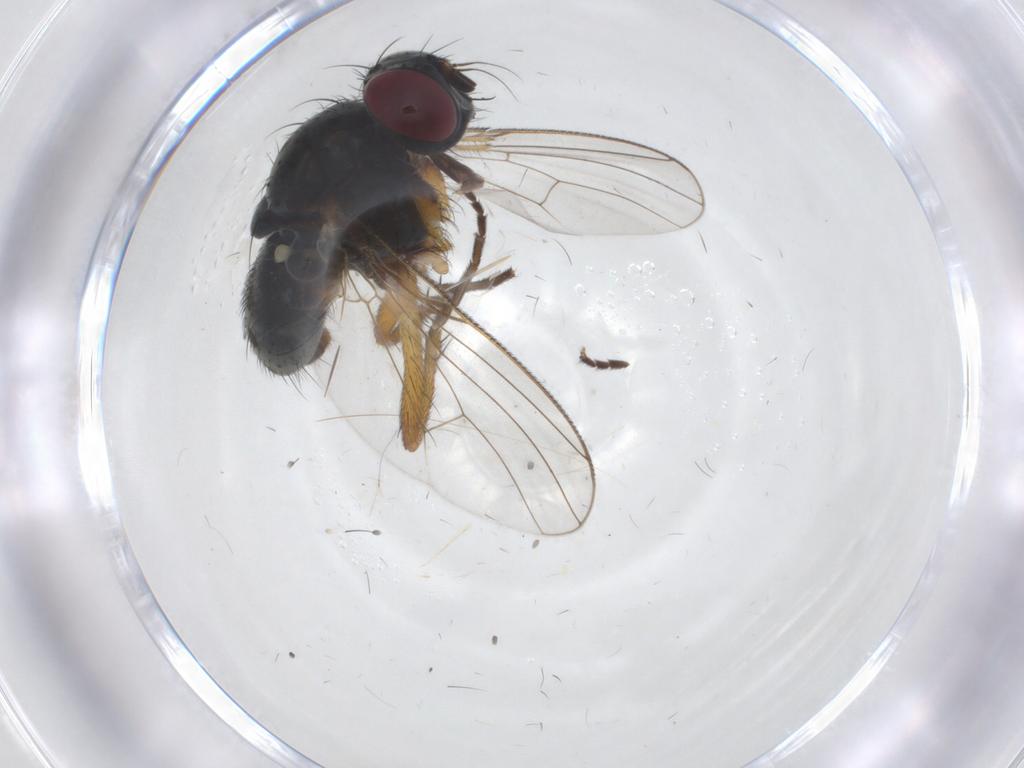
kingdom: Animalia
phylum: Arthropoda
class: Insecta
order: Diptera
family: Muscidae
